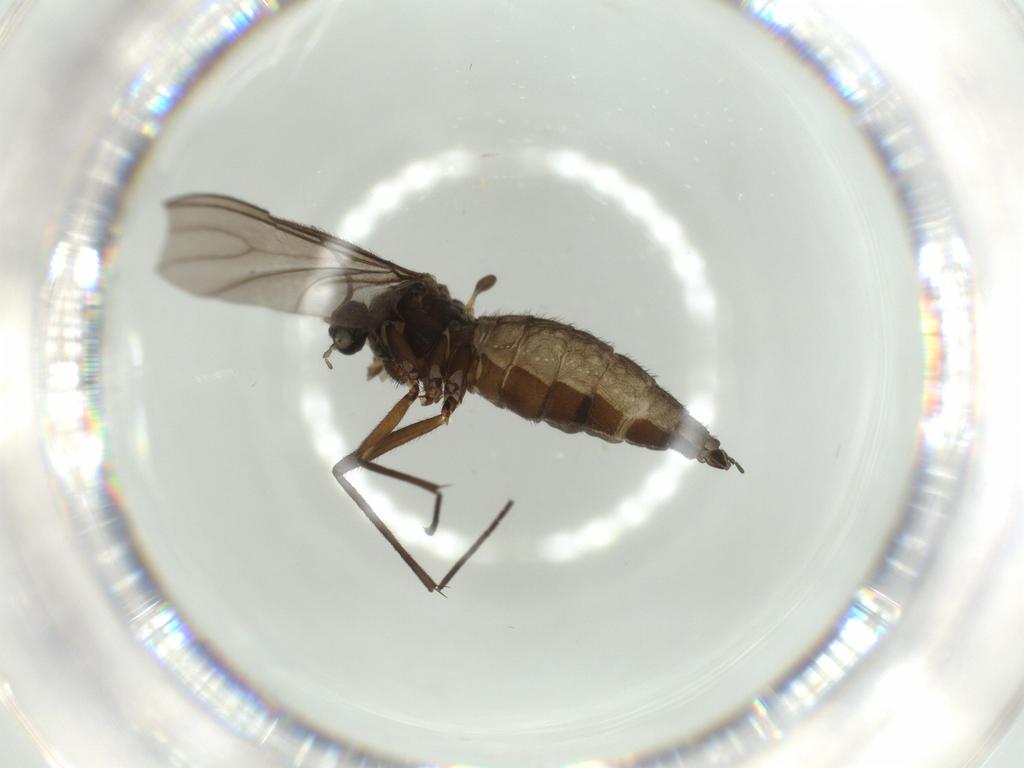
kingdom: Animalia
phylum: Arthropoda
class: Insecta
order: Diptera
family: Sciaridae
